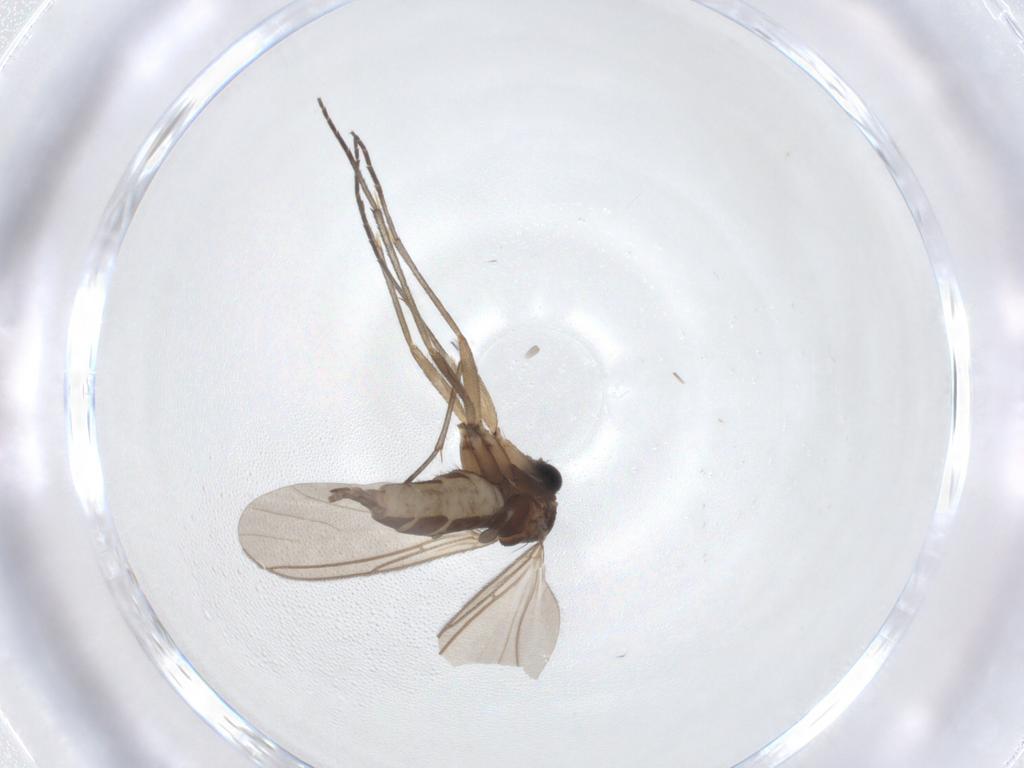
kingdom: Animalia
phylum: Arthropoda
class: Insecta
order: Diptera
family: Sciaridae
